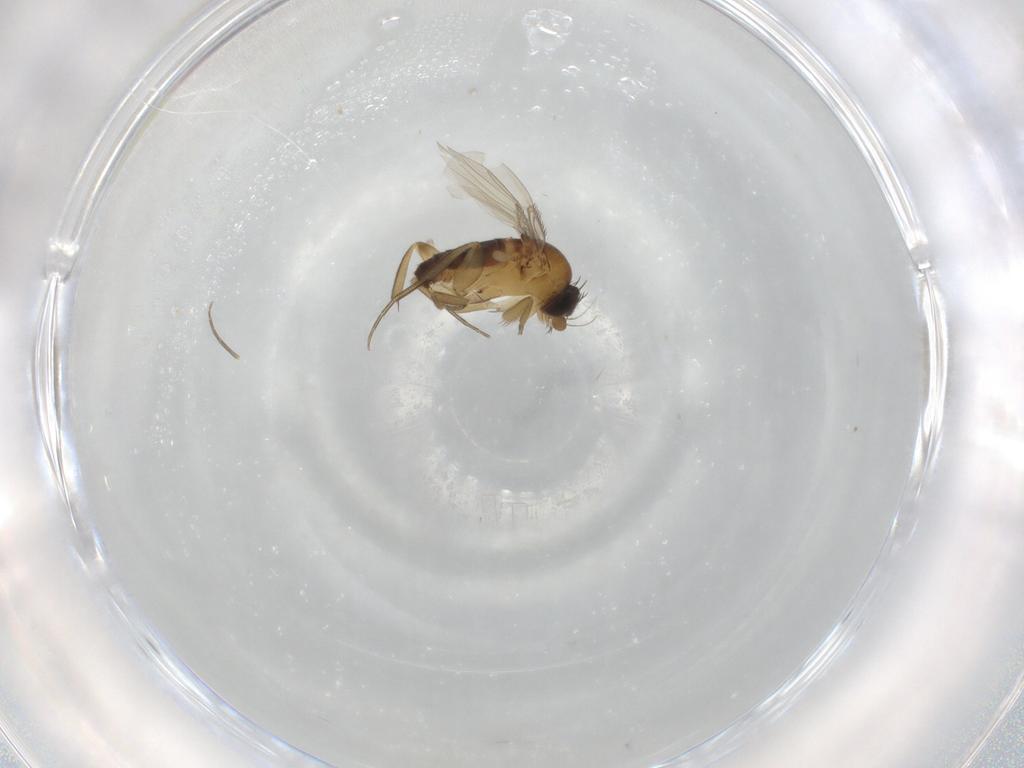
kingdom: Animalia
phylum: Arthropoda
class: Insecta
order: Diptera
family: Phoridae
